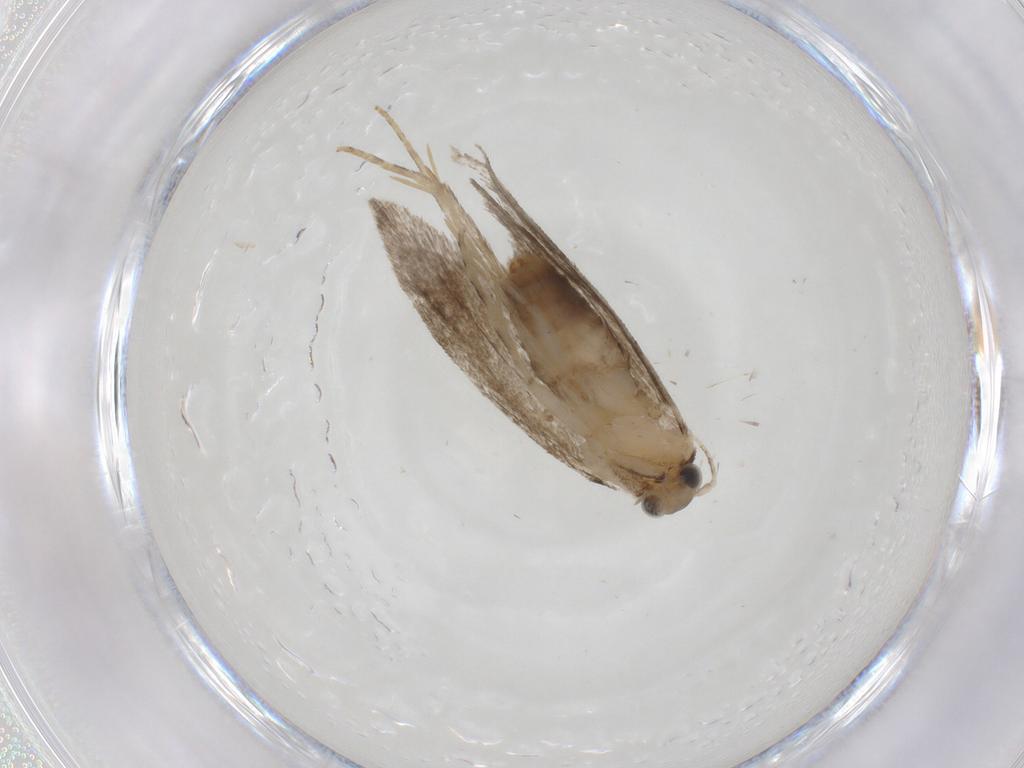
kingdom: Animalia
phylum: Arthropoda
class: Insecta
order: Lepidoptera
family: Tineidae
